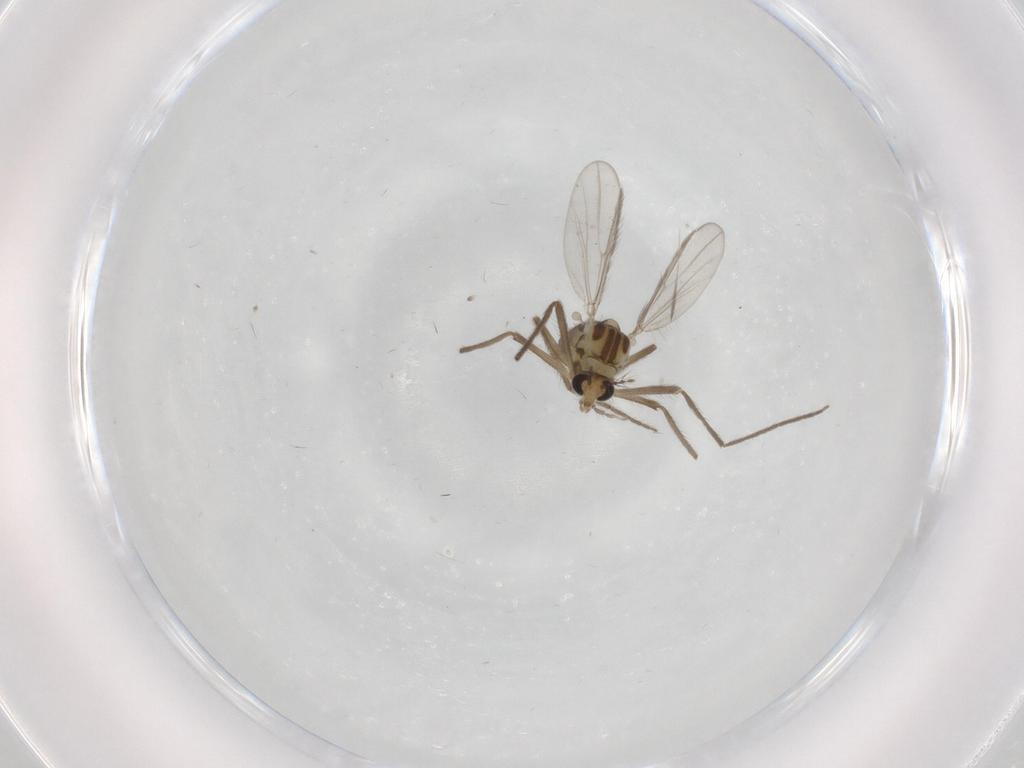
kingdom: Animalia
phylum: Arthropoda
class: Insecta
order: Diptera
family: Chironomidae
